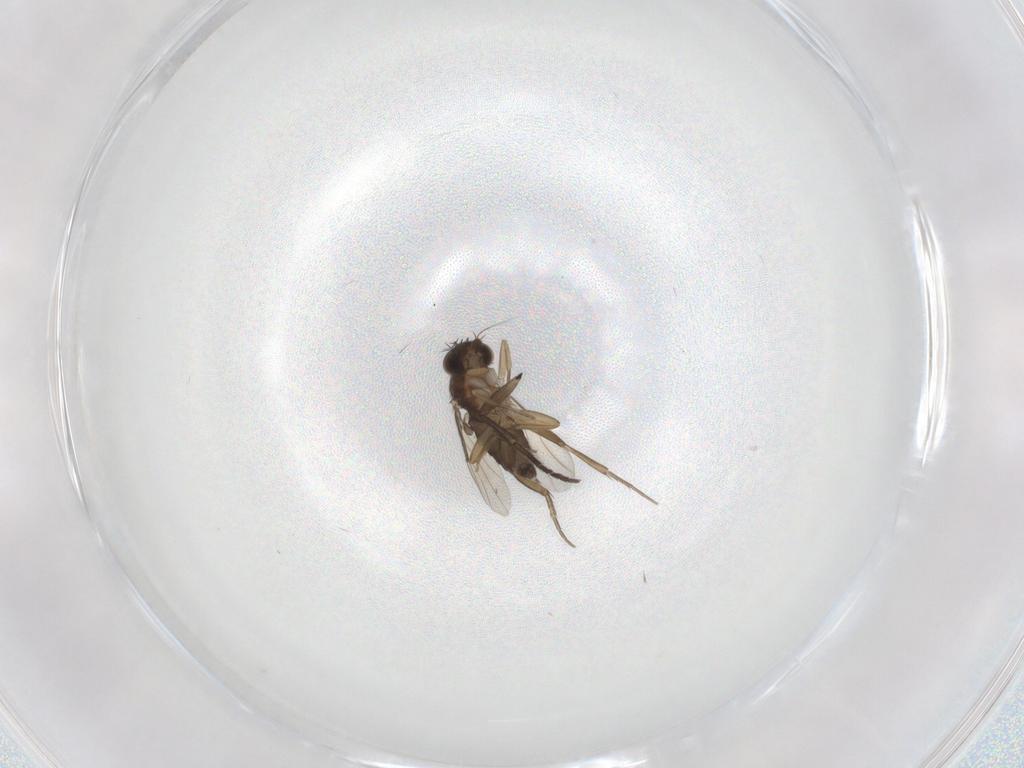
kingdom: Animalia
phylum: Arthropoda
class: Insecta
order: Diptera
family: Phoridae
